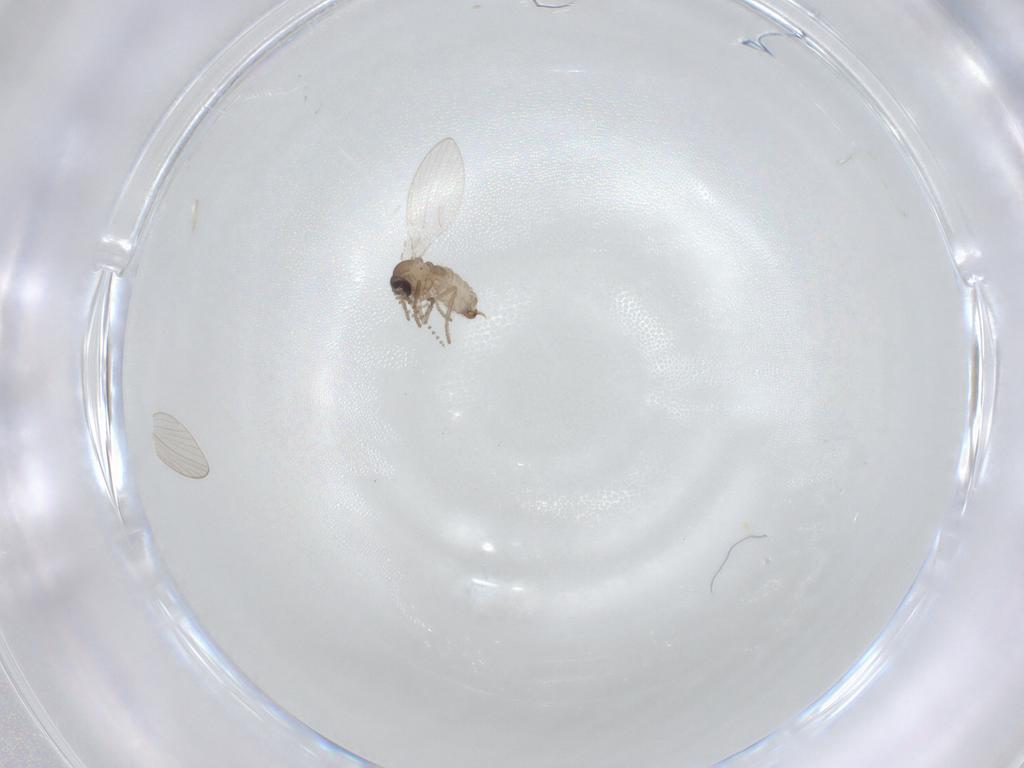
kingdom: Animalia
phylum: Arthropoda
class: Insecta
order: Diptera
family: Psychodidae
